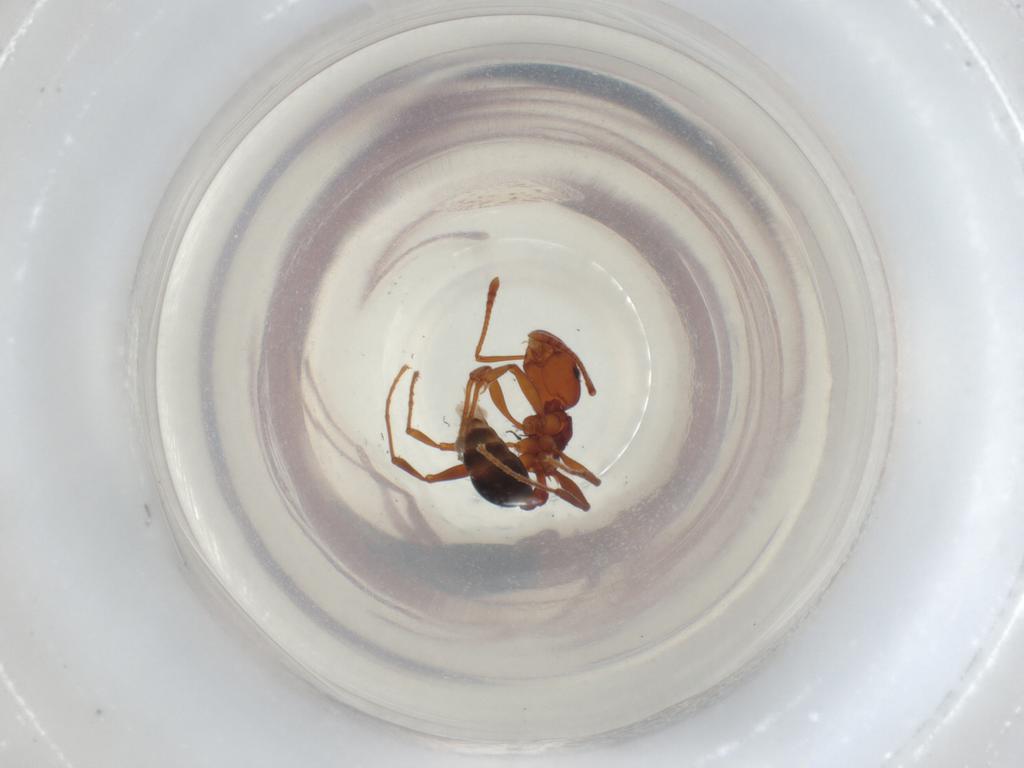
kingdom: Animalia
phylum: Arthropoda
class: Insecta
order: Hymenoptera
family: Formicidae
